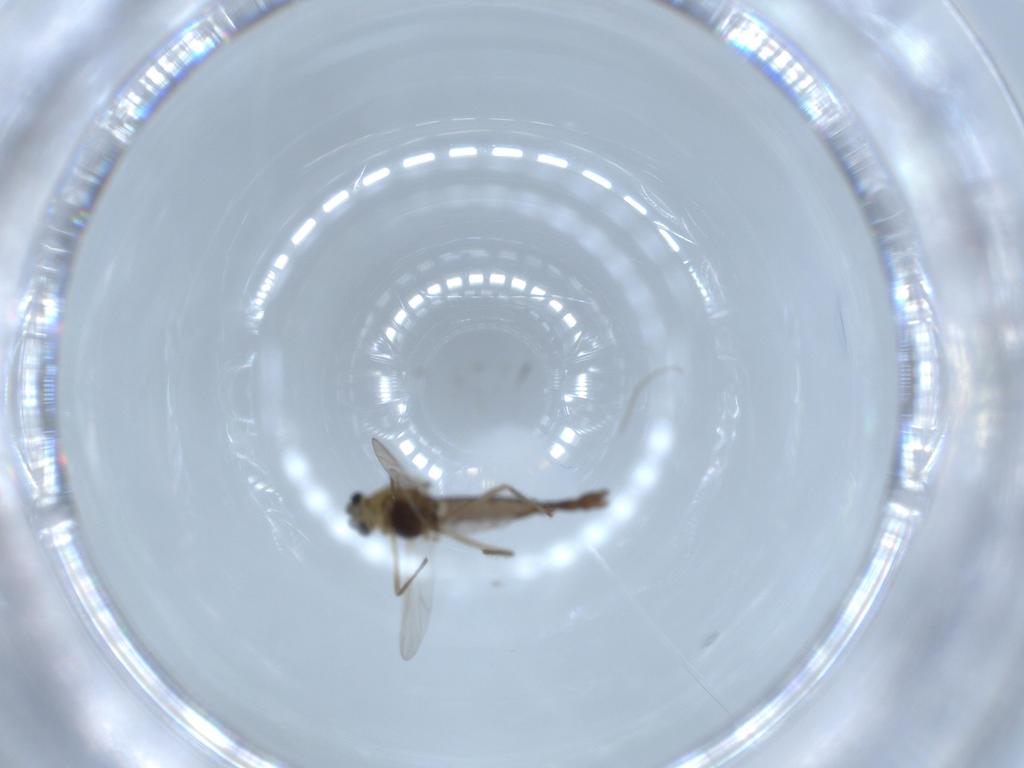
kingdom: Animalia
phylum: Arthropoda
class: Insecta
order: Diptera
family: Chironomidae
